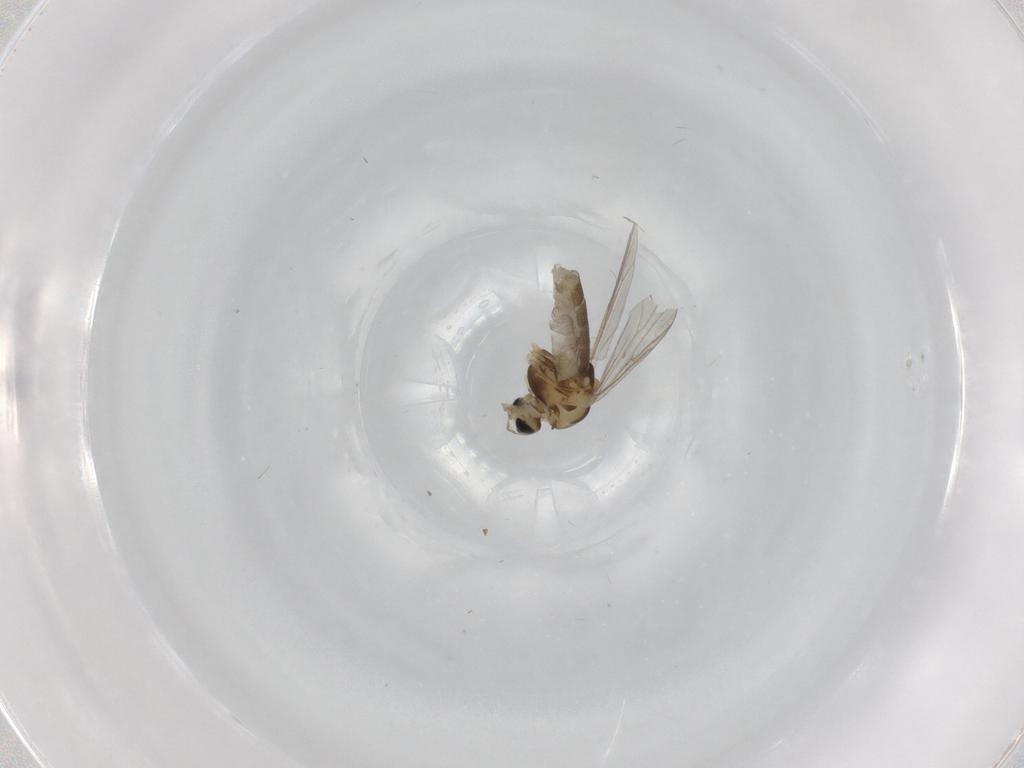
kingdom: Animalia
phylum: Arthropoda
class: Insecta
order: Diptera
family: Chironomidae
